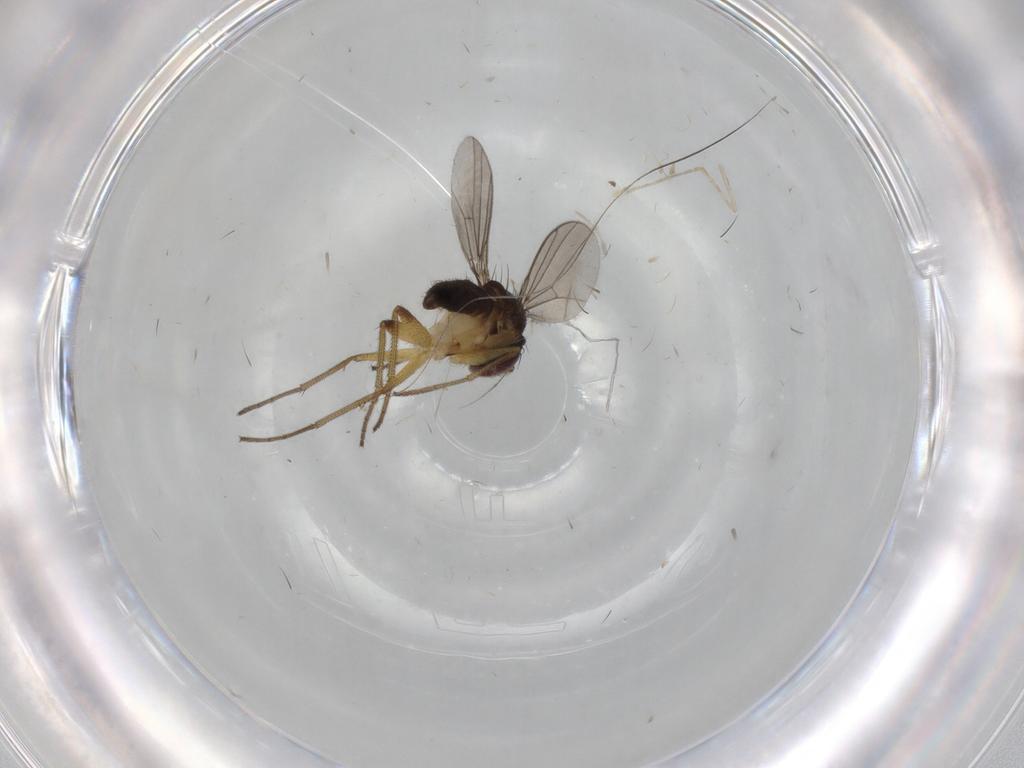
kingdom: Animalia
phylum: Arthropoda
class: Insecta
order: Diptera
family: Dolichopodidae
